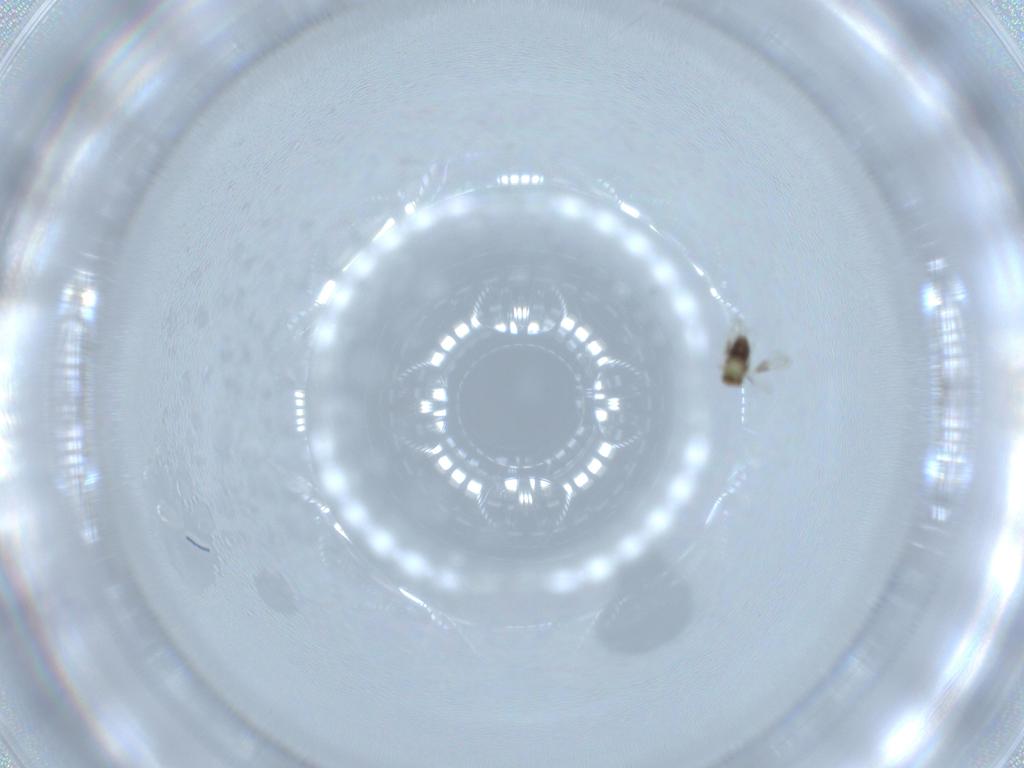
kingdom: Animalia
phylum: Arthropoda
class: Insecta
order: Hymenoptera
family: Aphelinidae
